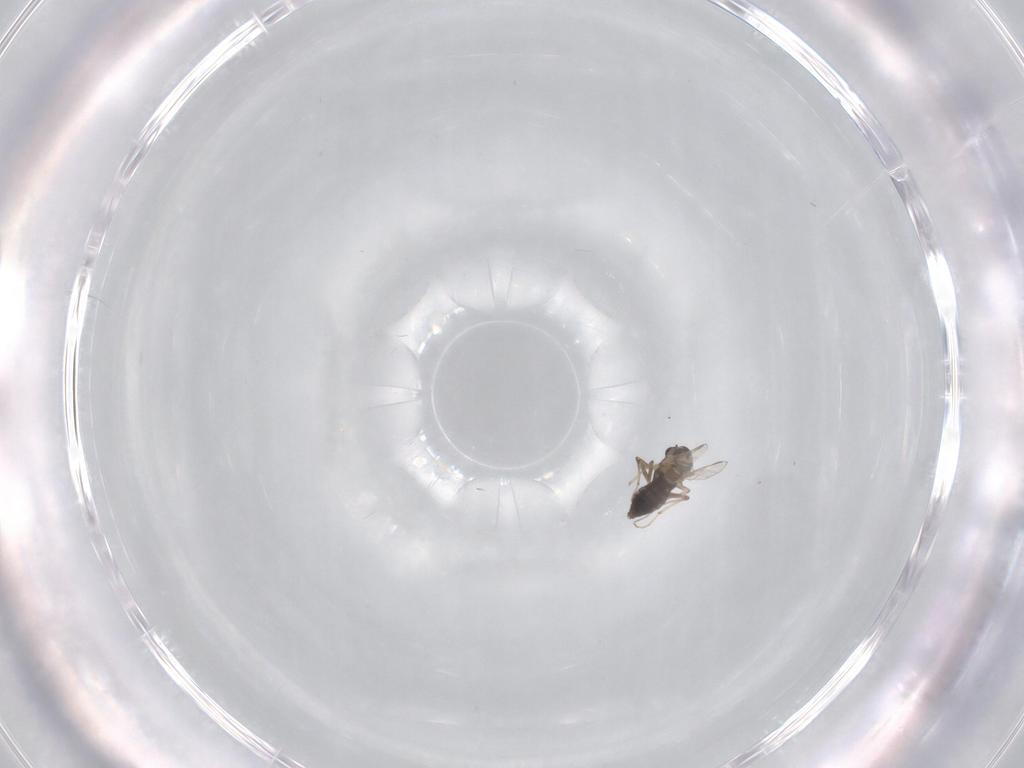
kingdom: Animalia
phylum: Arthropoda
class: Insecta
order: Diptera
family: Chironomidae
